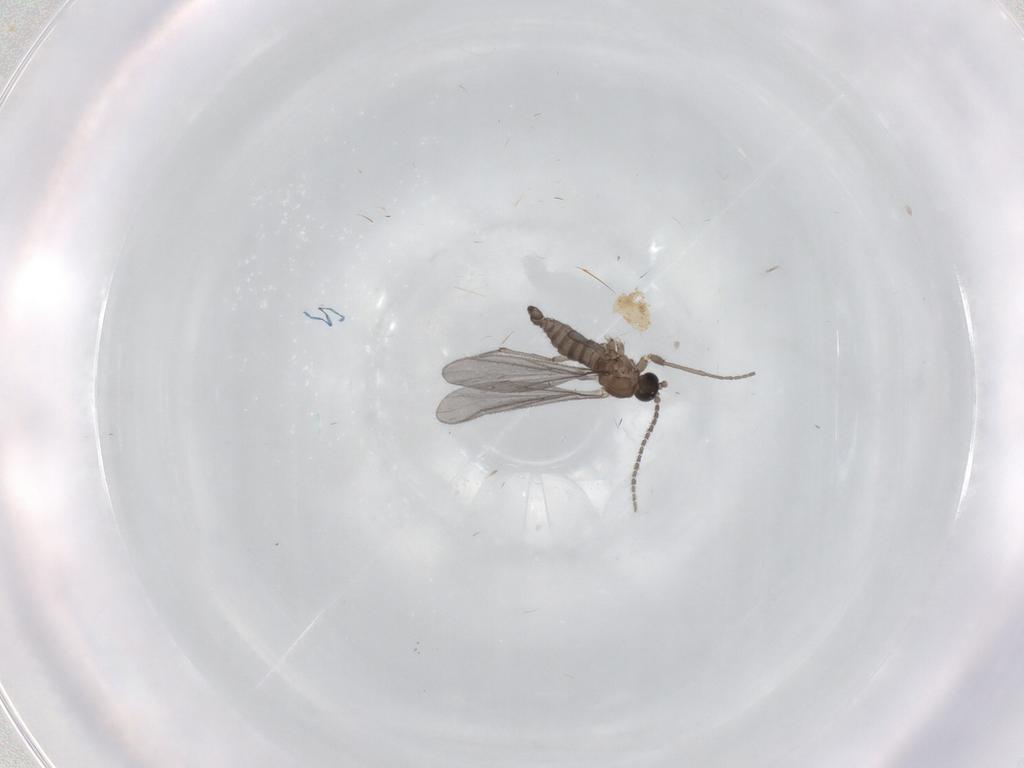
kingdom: Animalia
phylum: Arthropoda
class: Insecta
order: Diptera
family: Sciaridae
